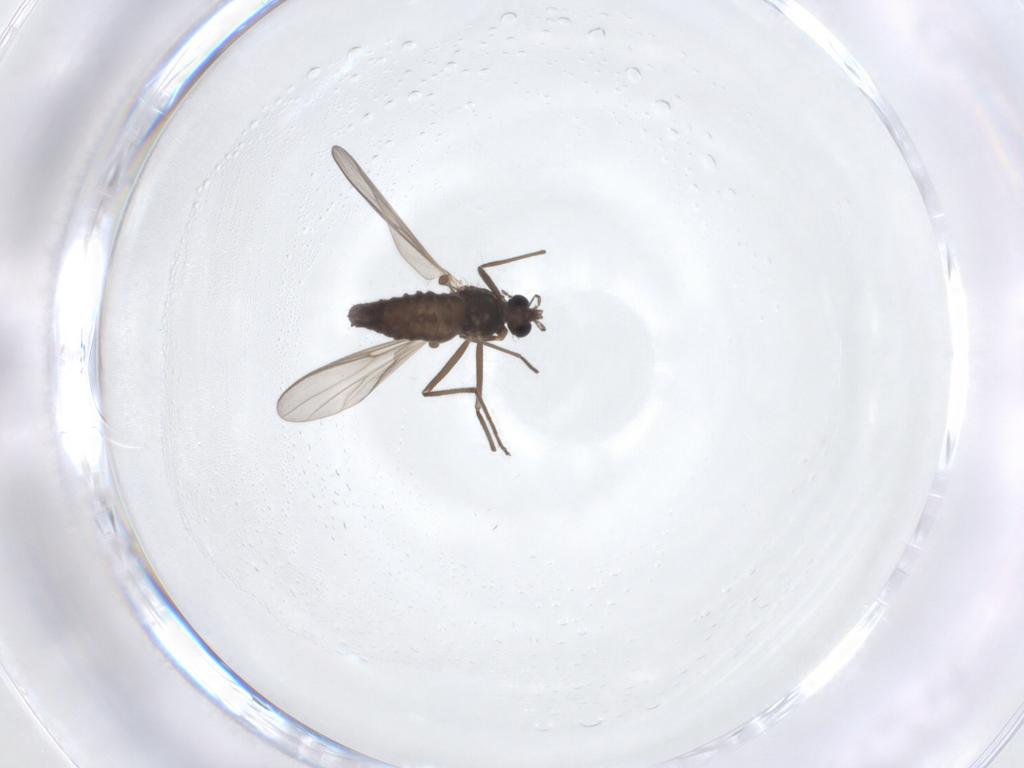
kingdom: Animalia
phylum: Arthropoda
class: Insecta
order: Diptera
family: Chironomidae
